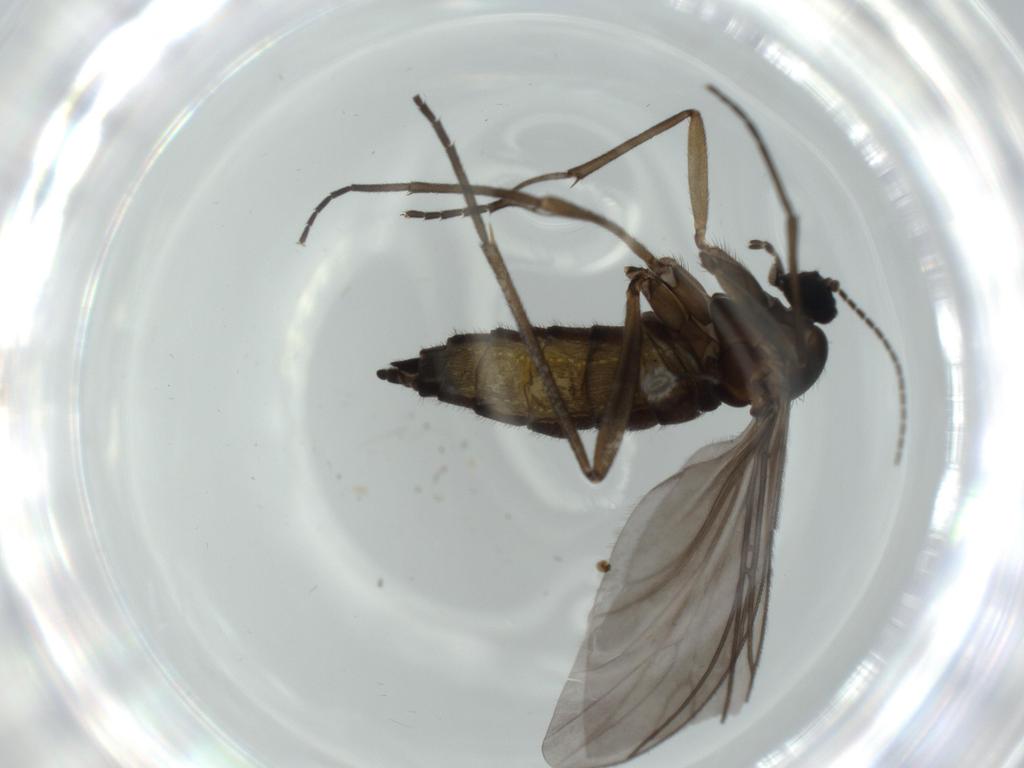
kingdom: Animalia
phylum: Arthropoda
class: Insecta
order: Diptera
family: Sciaridae
